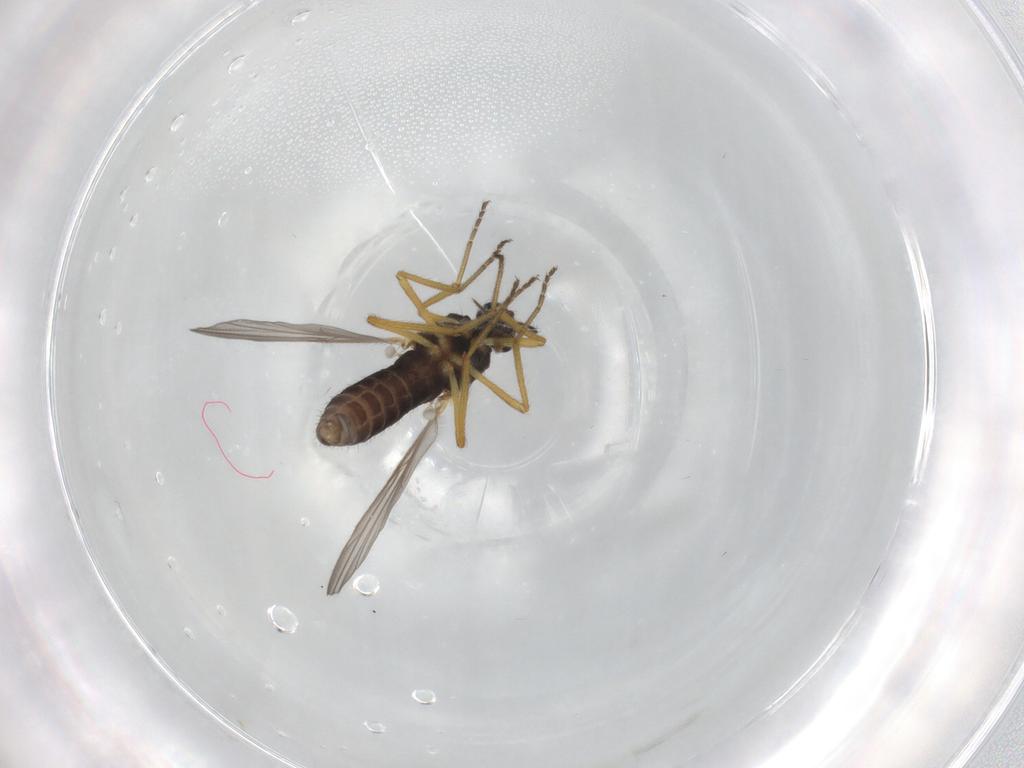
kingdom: Animalia
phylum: Arthropoda
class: Insecta
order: Diptera
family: Ceratopogonidae
